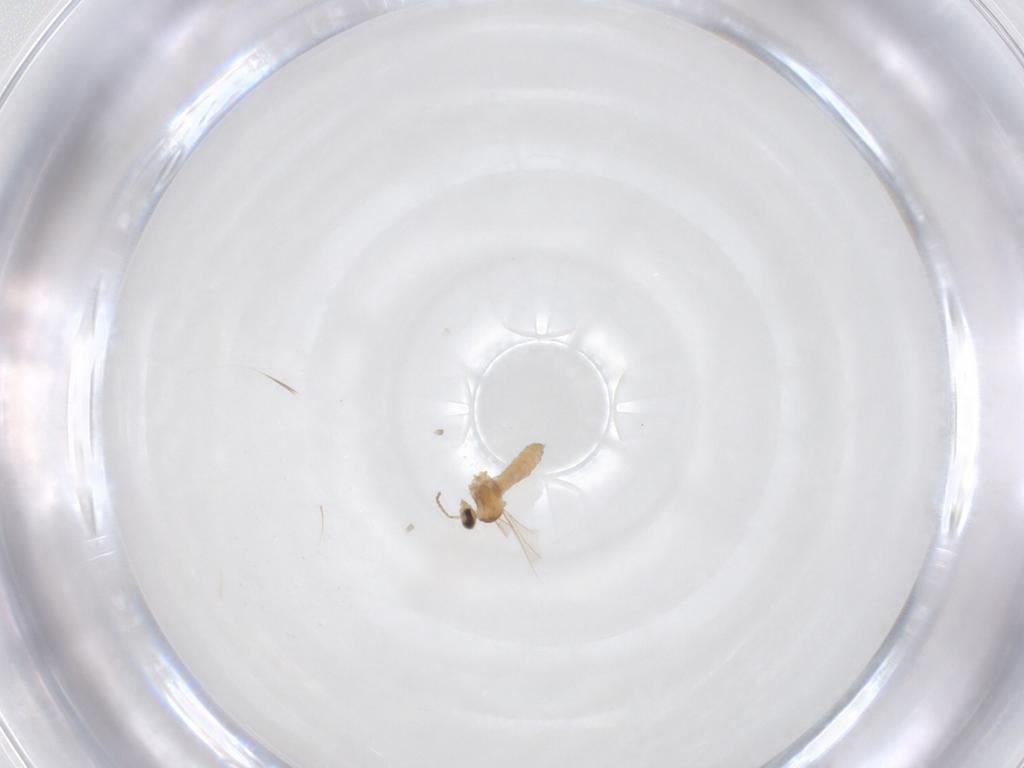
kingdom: Animalia
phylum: Arthropoda
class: Insecta
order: Diptera
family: Cecidomyiidae
